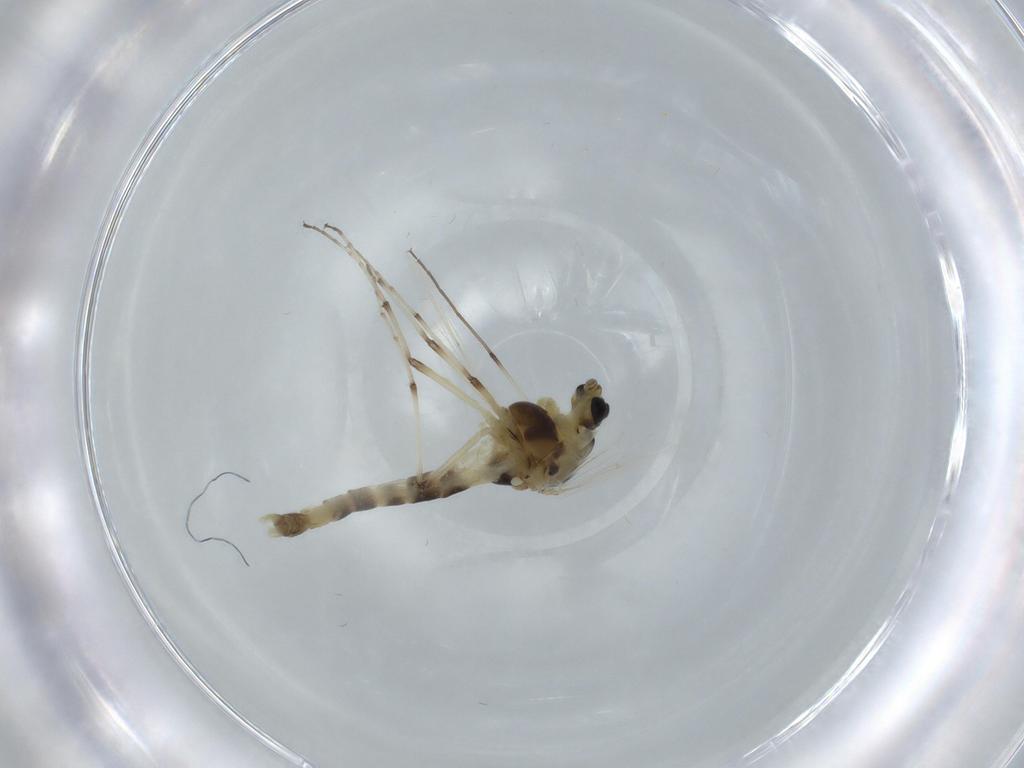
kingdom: Animalia
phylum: Arthropoda
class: Insecta
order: Diptera
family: Chironomidae
